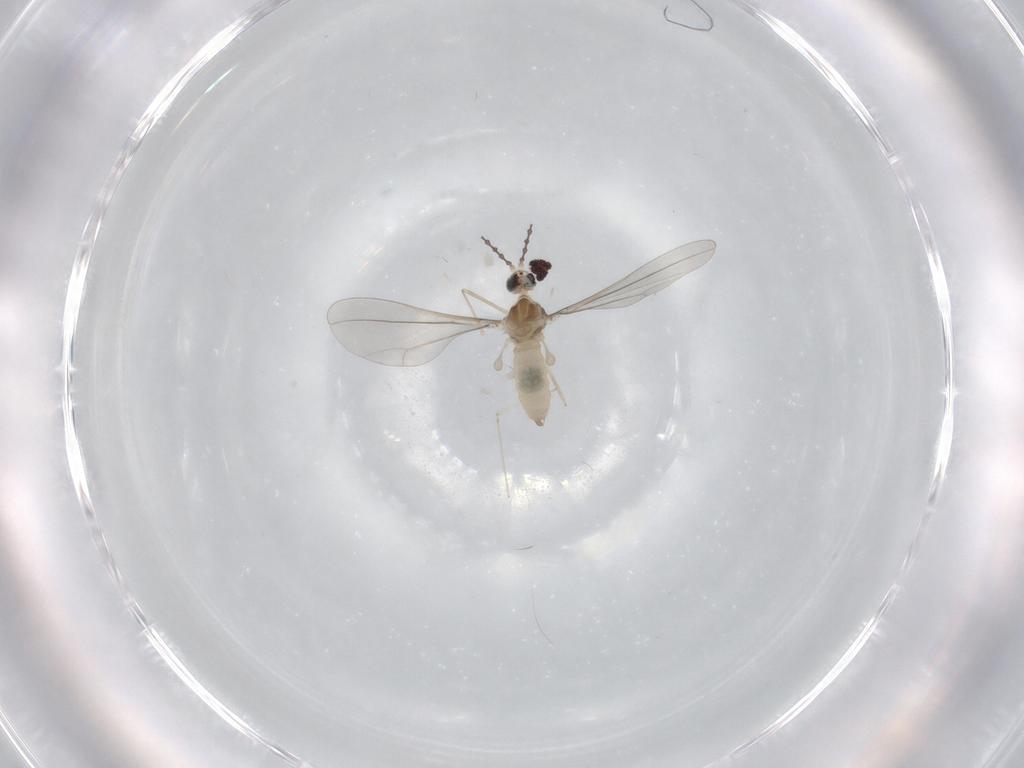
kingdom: Animalia
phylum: Arthropoda
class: Insecta
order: Diptera
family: Cecidomyiidae
